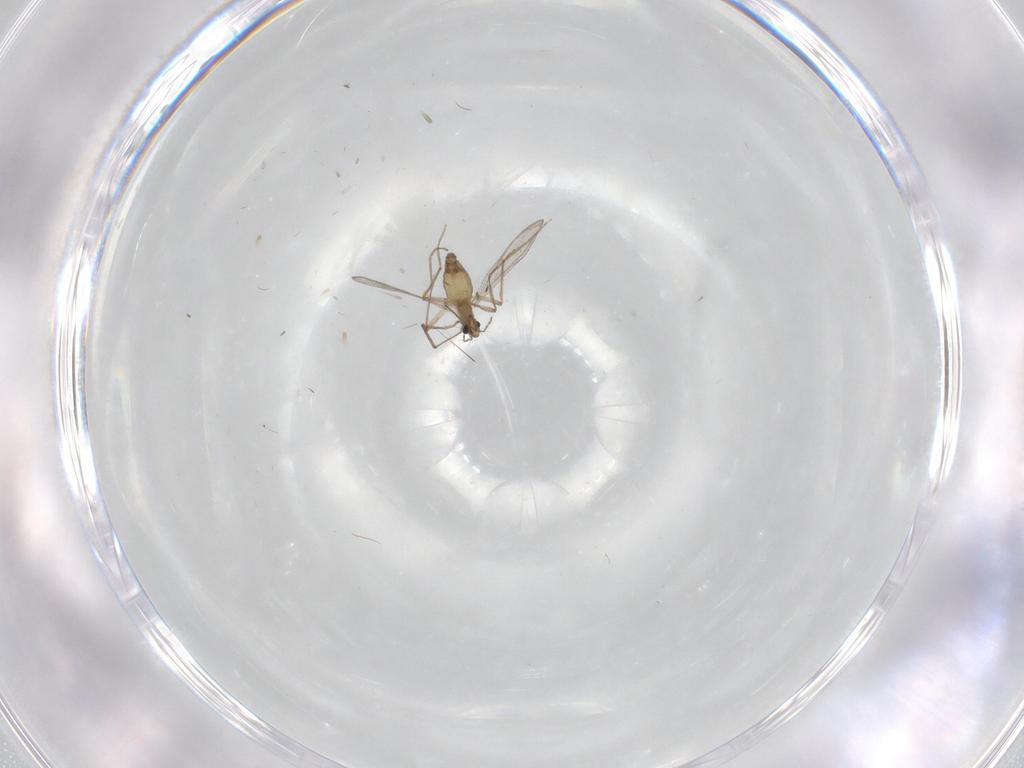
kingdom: Animalia
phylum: Arthropoda
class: Insecta
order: Diptera
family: Chironomidae
